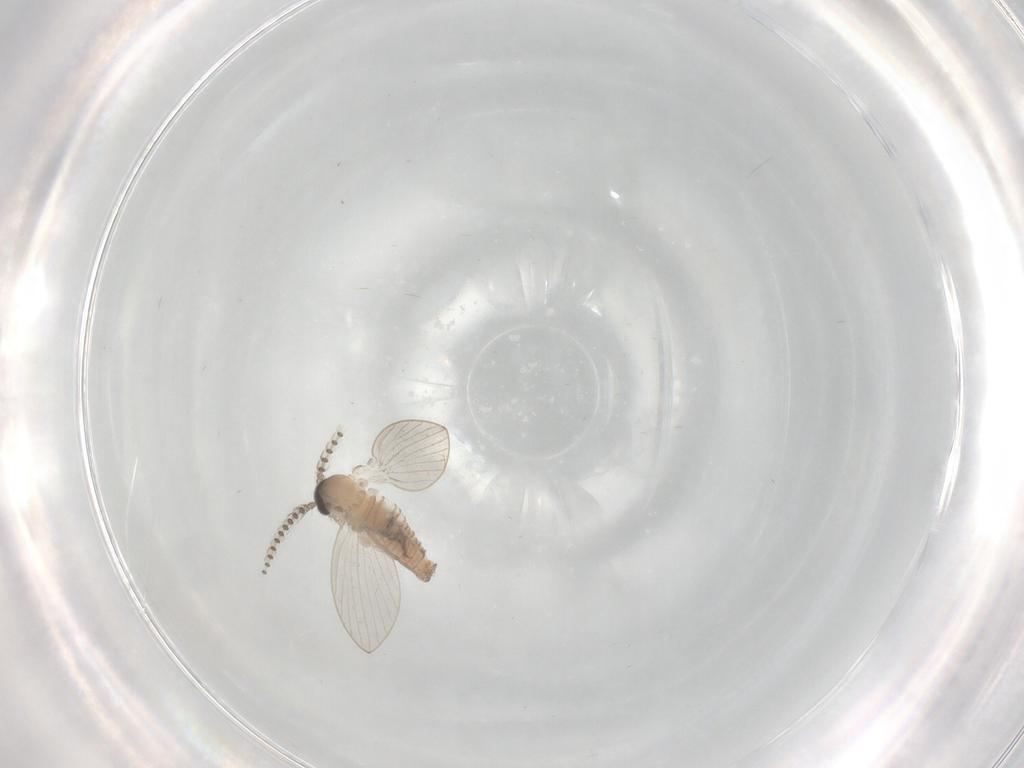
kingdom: Animalia
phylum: Arthropoda
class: Insecta
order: Diptera
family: Psychodidae
